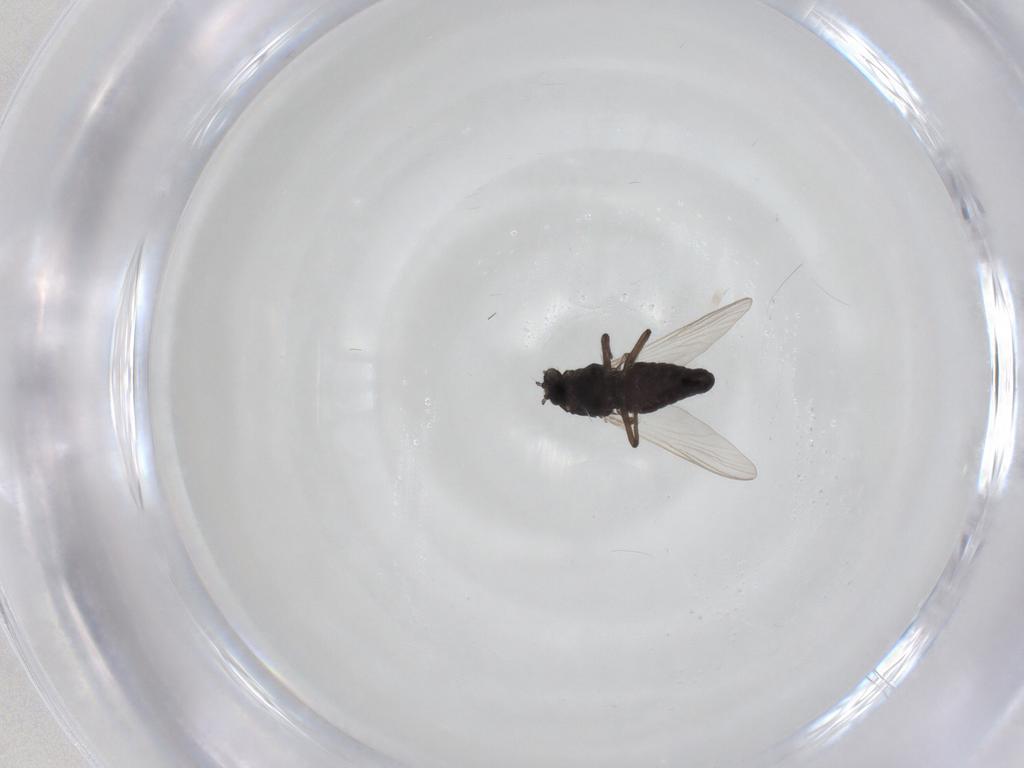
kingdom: Animalia
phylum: Arthropoda
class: Insecta
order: Diptera
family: Chironomidae
